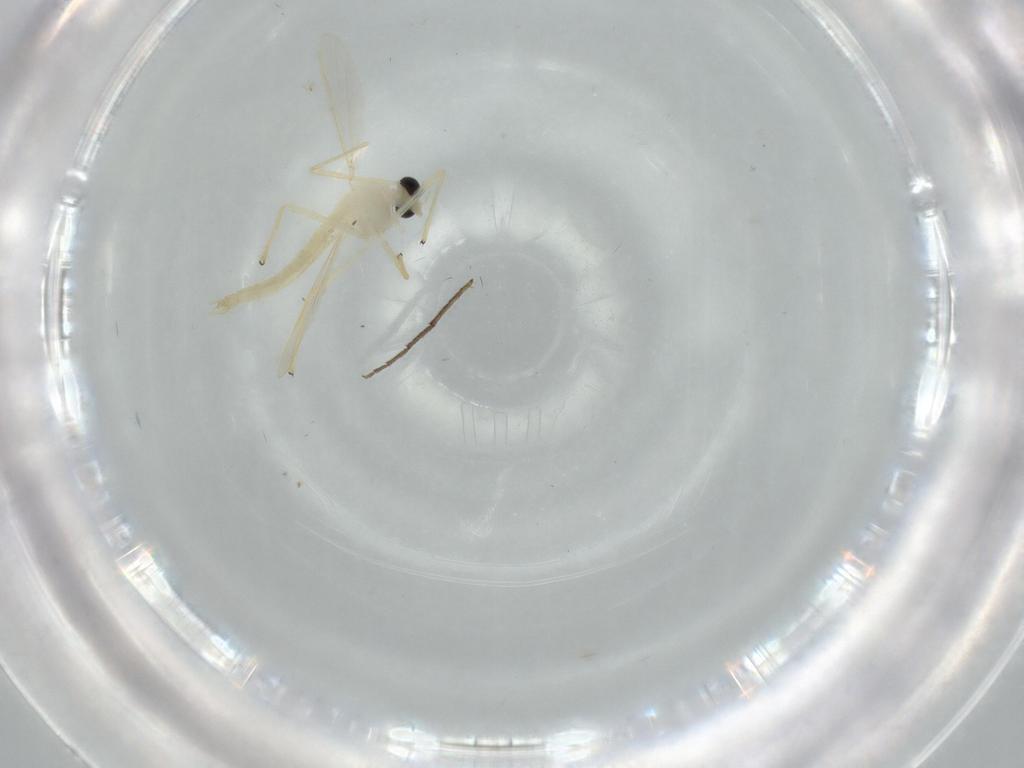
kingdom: Animalia
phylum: Arthropoda
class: Insecta
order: Diptera
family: Chironomidae
